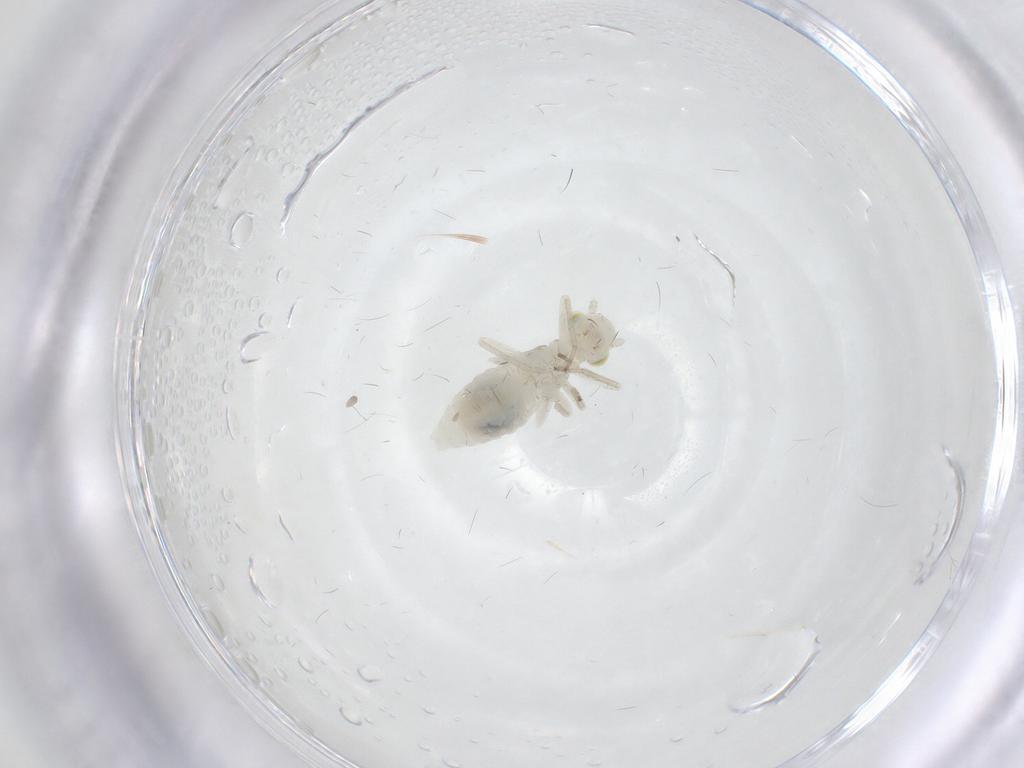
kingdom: Animalia
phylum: Arthropoda
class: Insecta
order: Psocodea
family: Caeciliusidae
